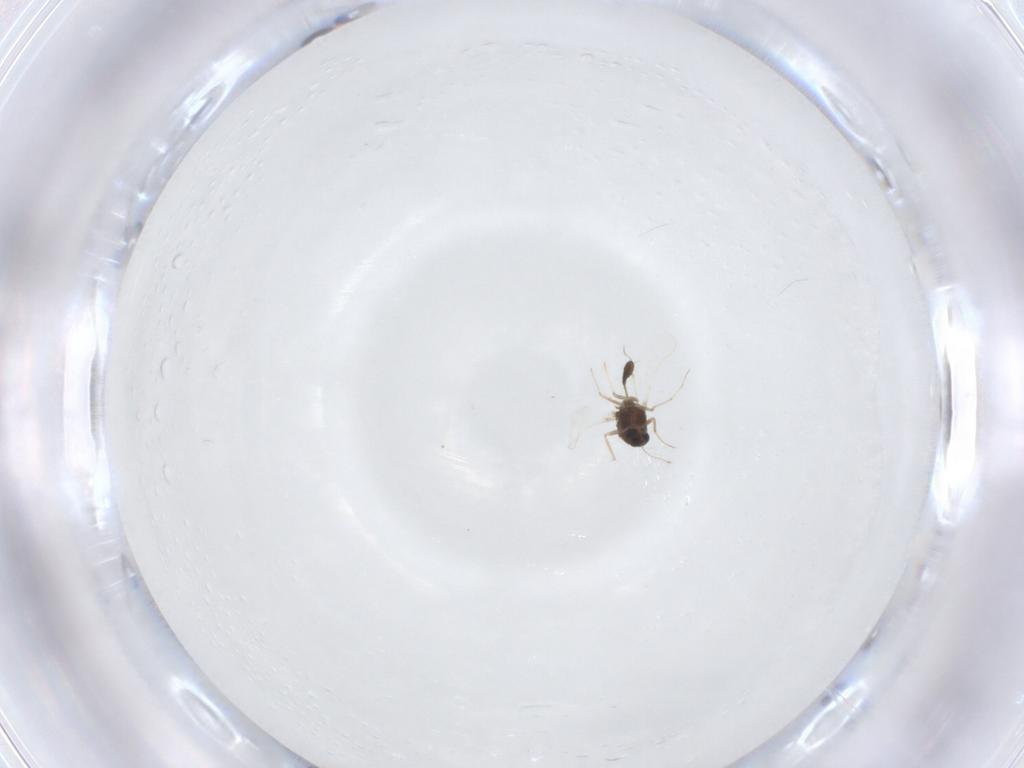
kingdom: Animalia
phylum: Arthropoda
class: Insecta
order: Diptera
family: Chironomidae
